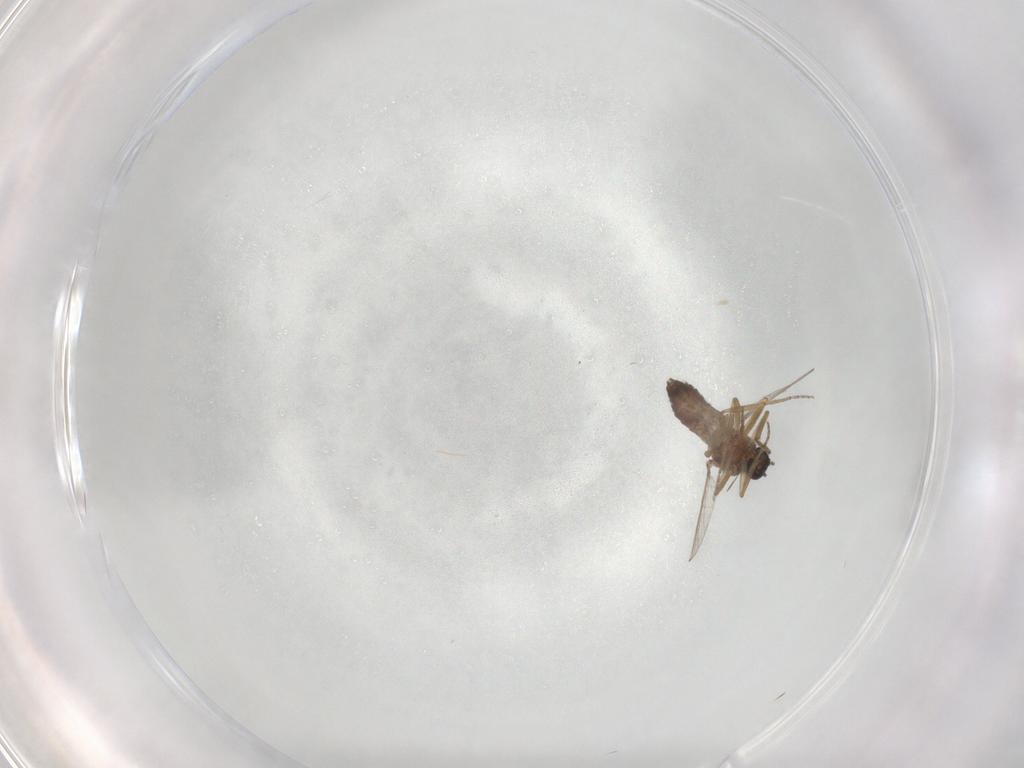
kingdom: Animalia
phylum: Arthropoda
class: Insecta
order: Diptera
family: Ceratopogonidae
